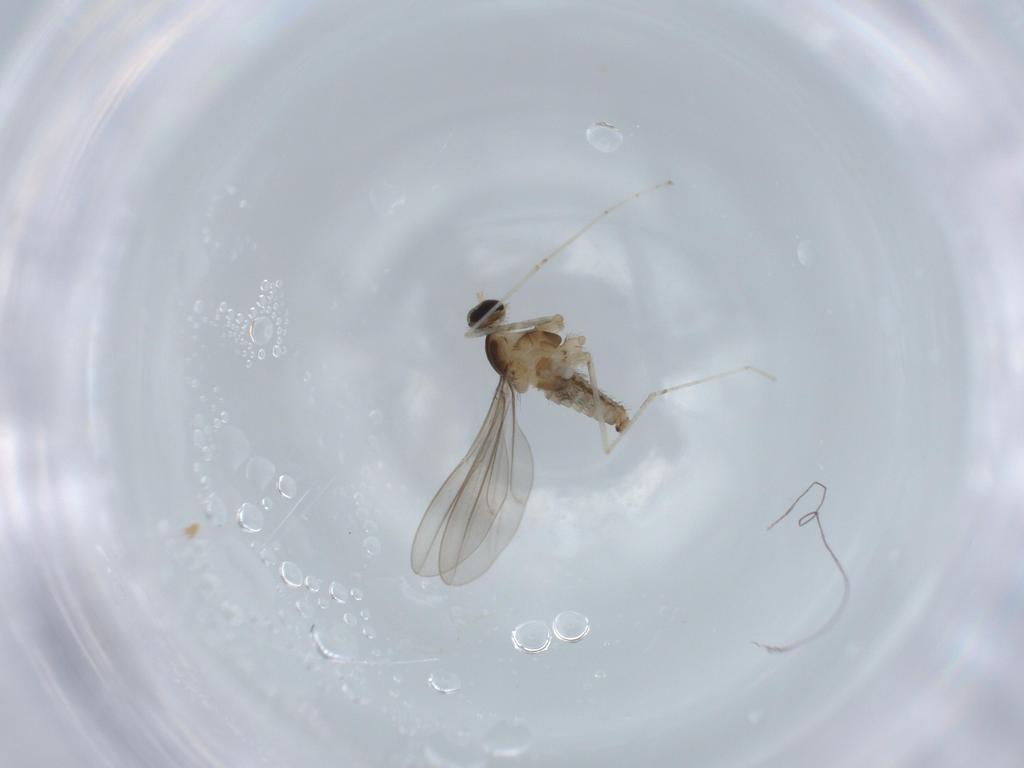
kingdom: Animalia
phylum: Arthropoda
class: Insecta
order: Diptera
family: Cecidomyiidae
